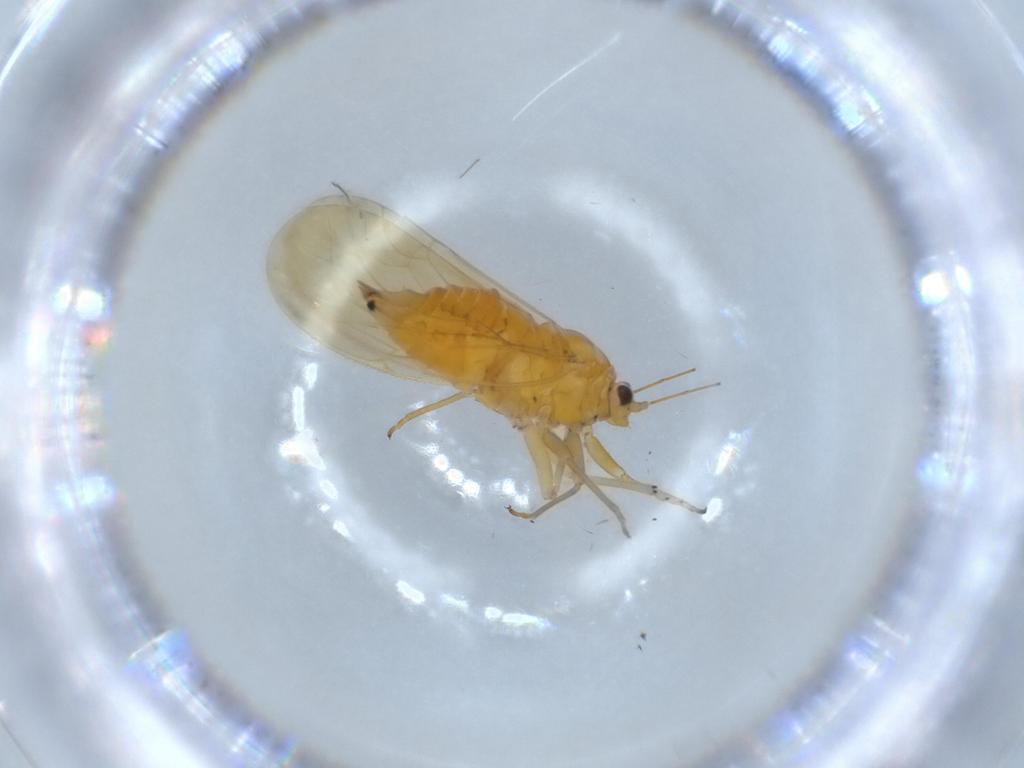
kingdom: Animalia
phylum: Arthropoda
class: Insecta
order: Hemiptera
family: Psyllidae
